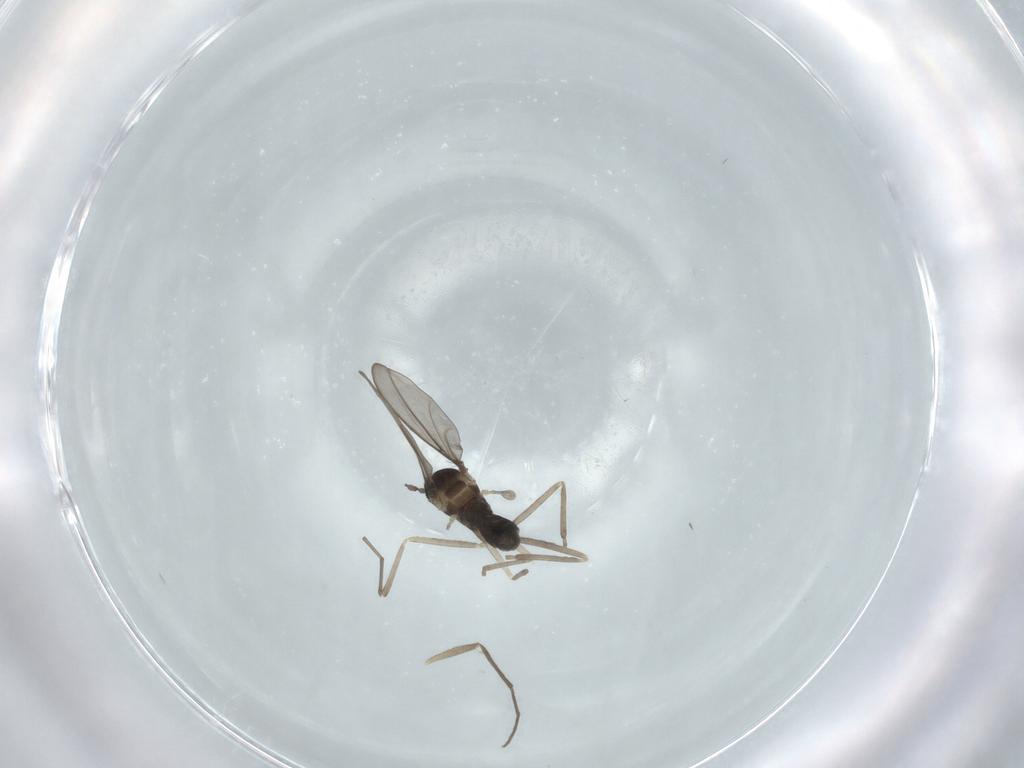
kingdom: Animalia
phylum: Arthropoda
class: Insecta
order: Diptera
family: Cecidomyiidae
